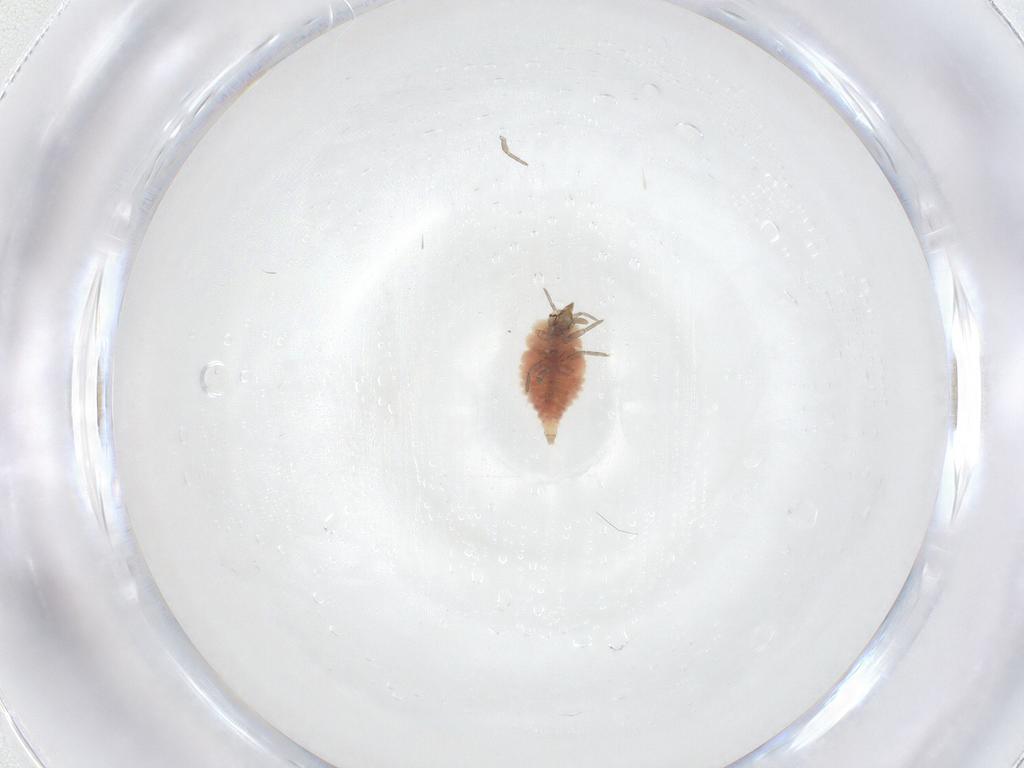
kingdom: Animalia
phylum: Arthropoda
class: Insecta
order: Neuroptera
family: Coniopterygidae
